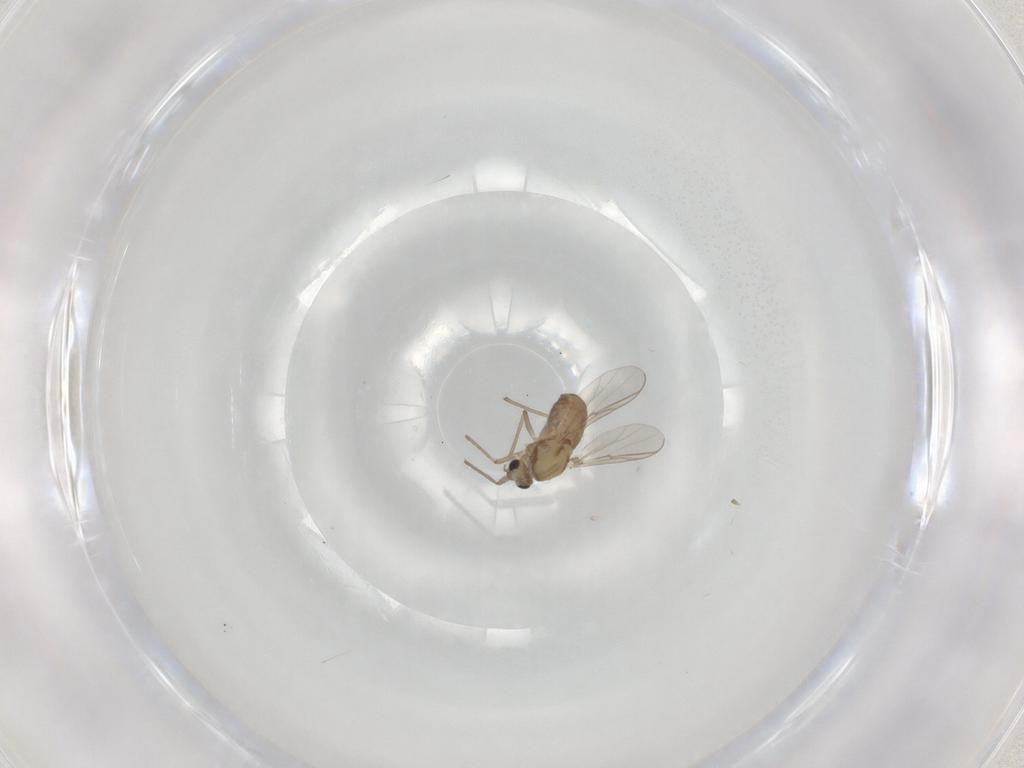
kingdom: Animalia
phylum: Arthropoda
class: Insecta
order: Diptera
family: Chironomidae
